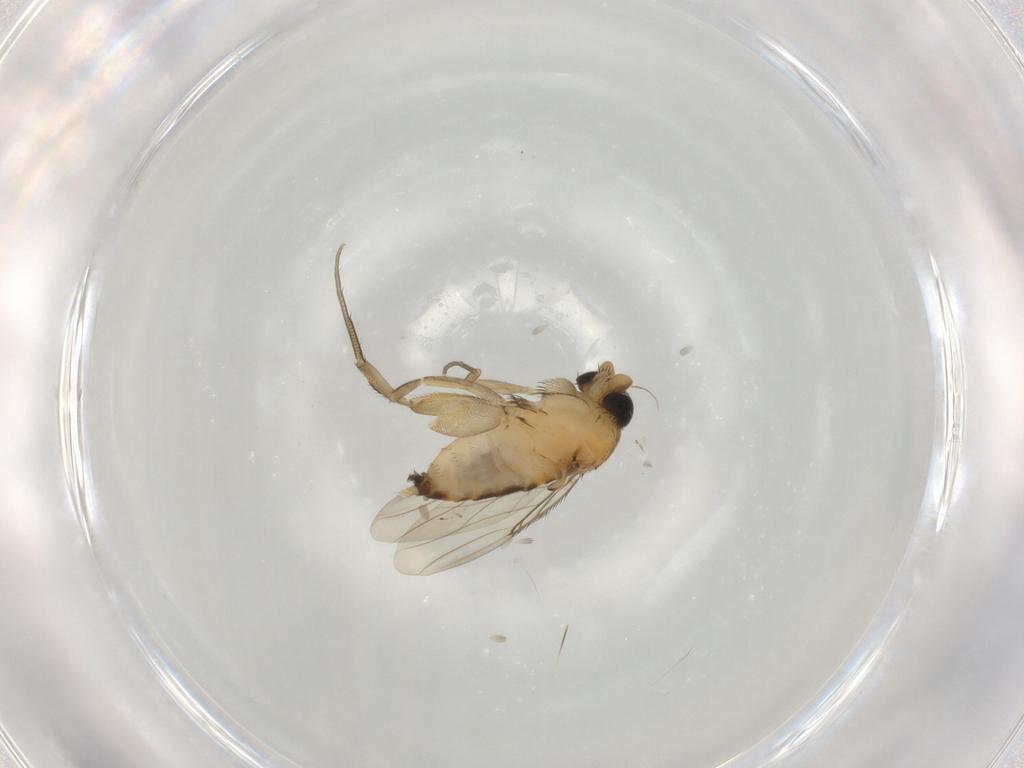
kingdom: Animalia
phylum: Arthropoda
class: Insecta
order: Diptera
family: Phoridae
